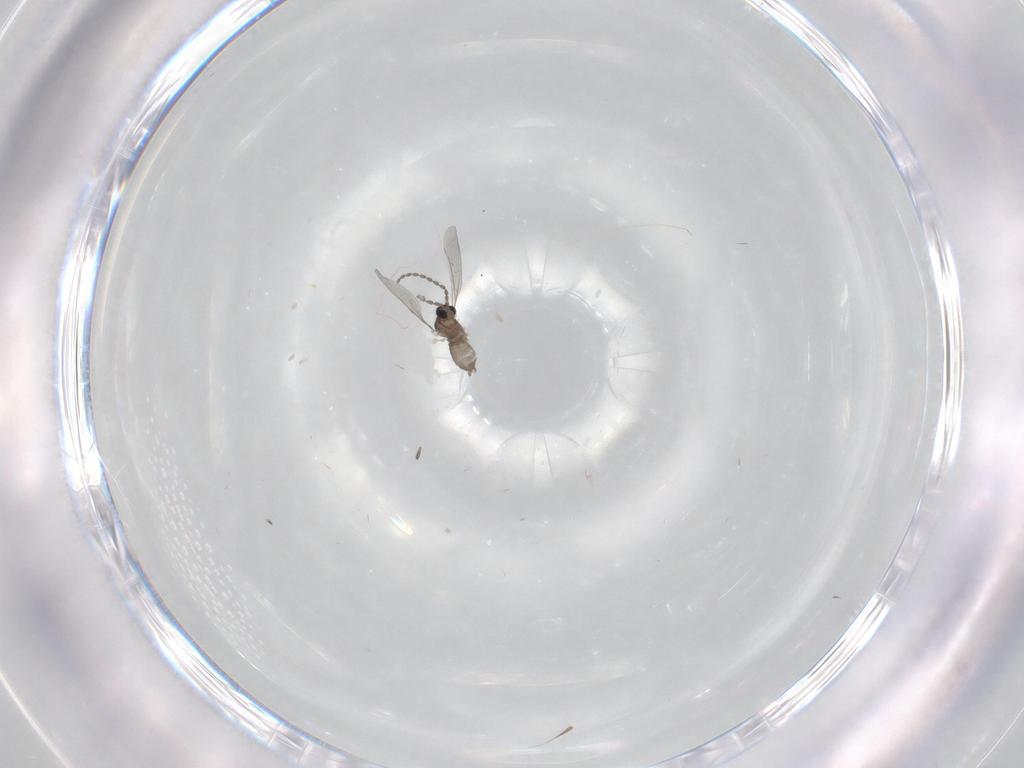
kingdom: Animalia
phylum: Arthropoda
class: Insecta
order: Diptera
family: Cecidomyiidae
